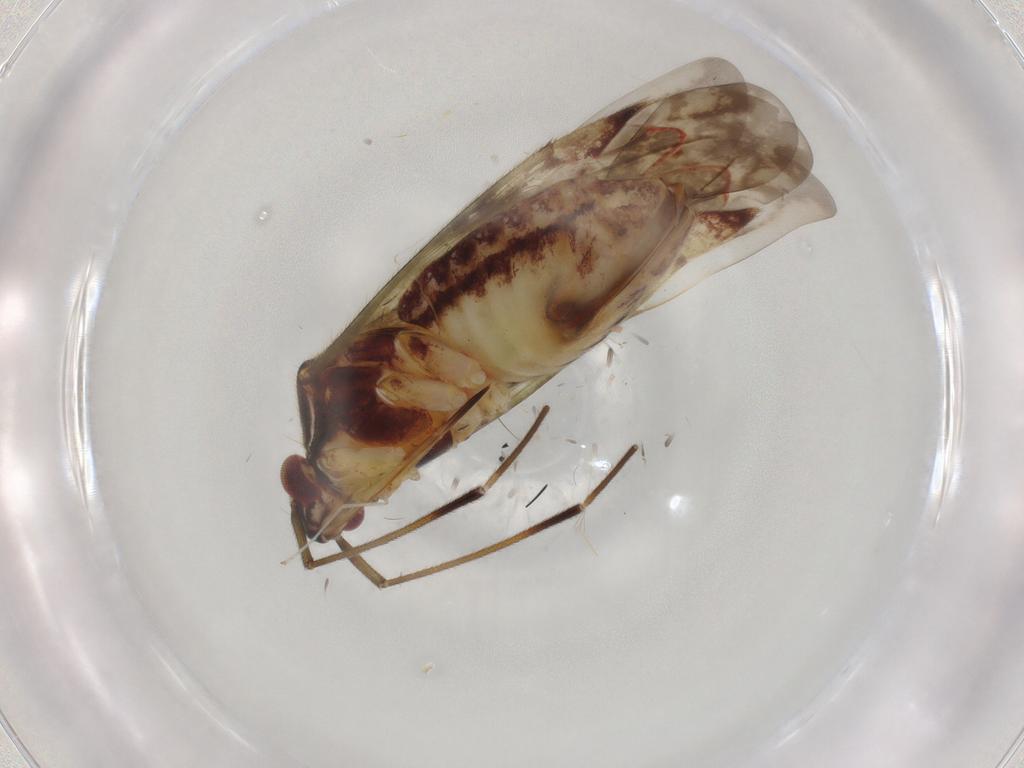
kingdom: Animalia
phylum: Arthropoda
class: Insecta
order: Hemiptera
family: Miridae
